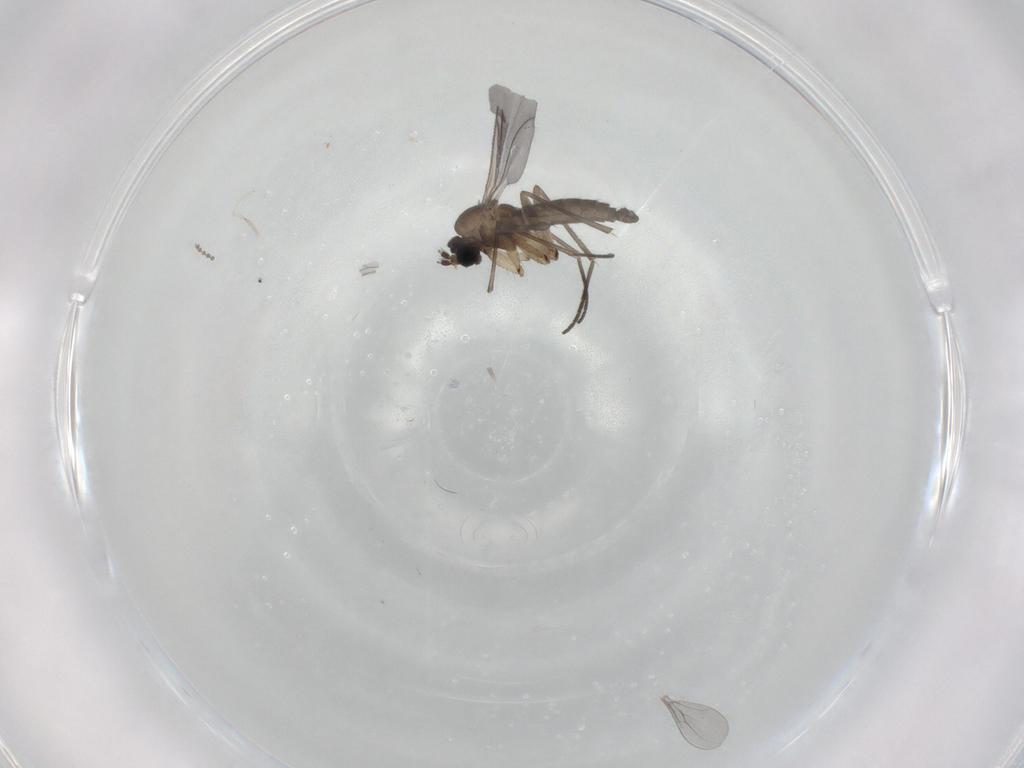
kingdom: Animalia
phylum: Arthropoda
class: Insecta
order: Diptera
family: Sciaridae
